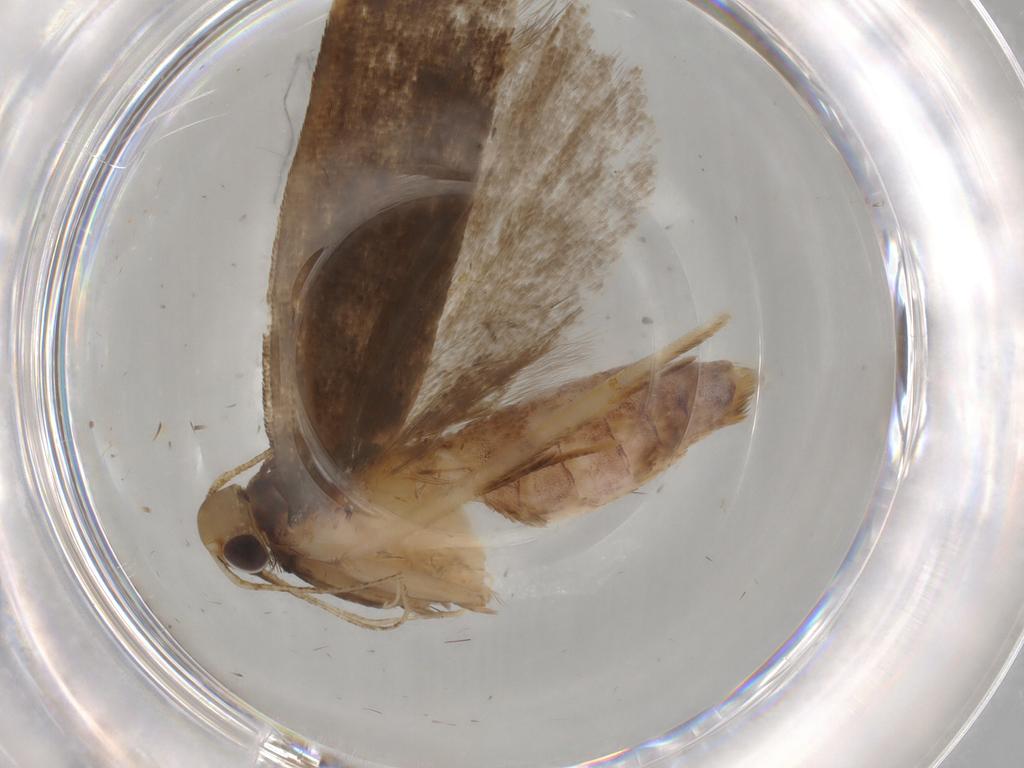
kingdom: Animalia
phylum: Arthropoda
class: Insecta
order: Lepidoptera
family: Gelechiidae
